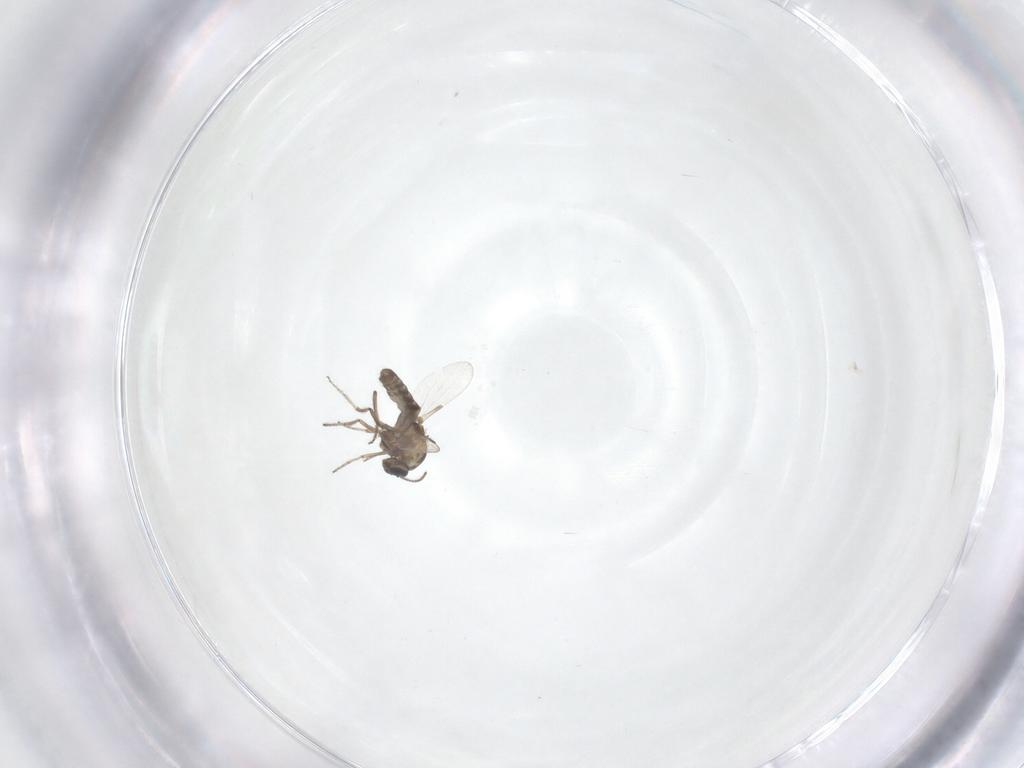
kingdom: Animalia
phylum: Arthropoda
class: Insecta
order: Diptera
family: Ceratopogonidae
